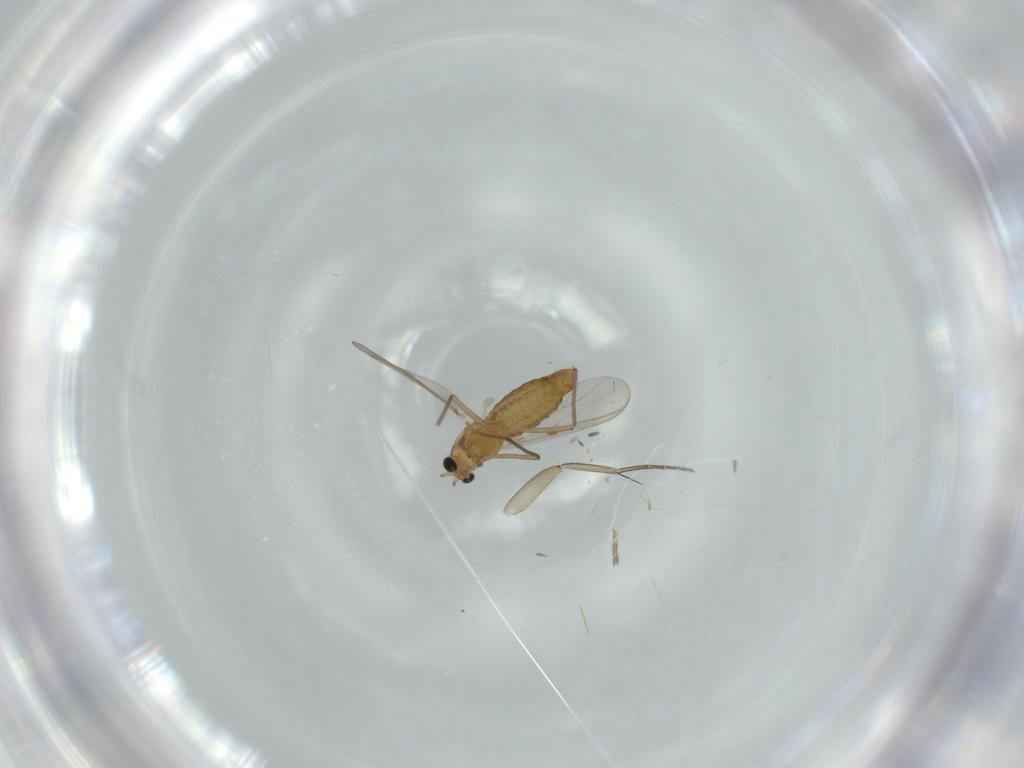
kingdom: Animalia
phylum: Arthropoda
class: Insecta
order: Diptera
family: Chironomidae
